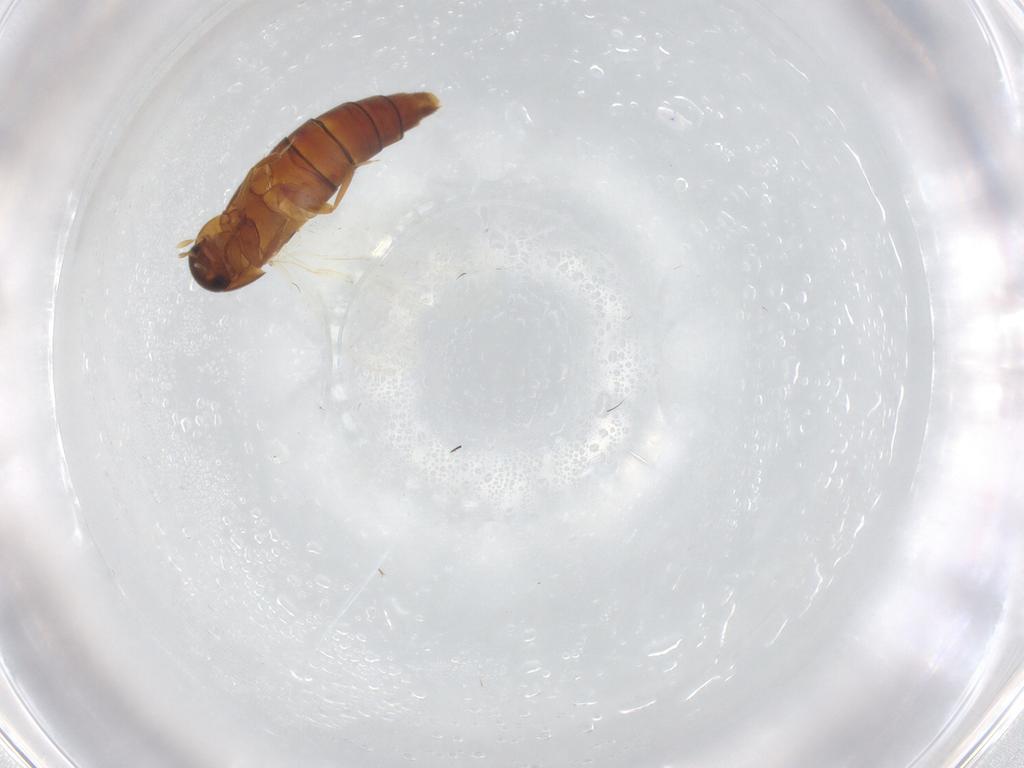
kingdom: Animalia
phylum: Arthropoda
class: Insecta
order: Coleoptera
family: Staphylinidae
